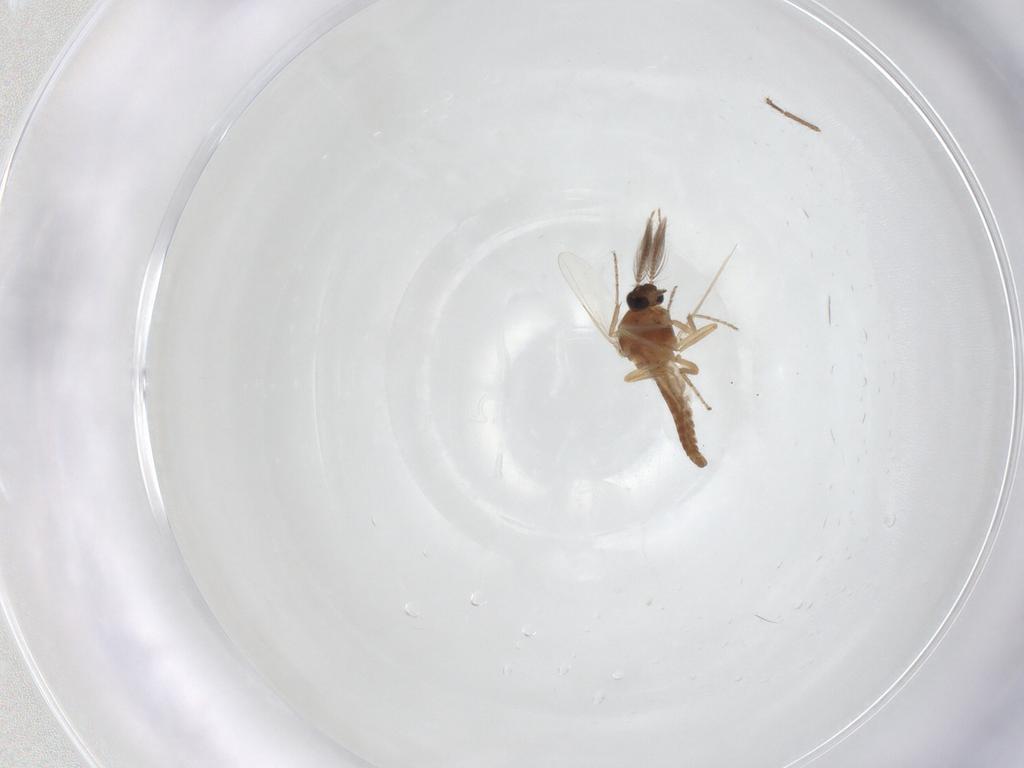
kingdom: Animalia
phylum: Arthropoda
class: Insecta
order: Diptera
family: Ceratopogonidae
